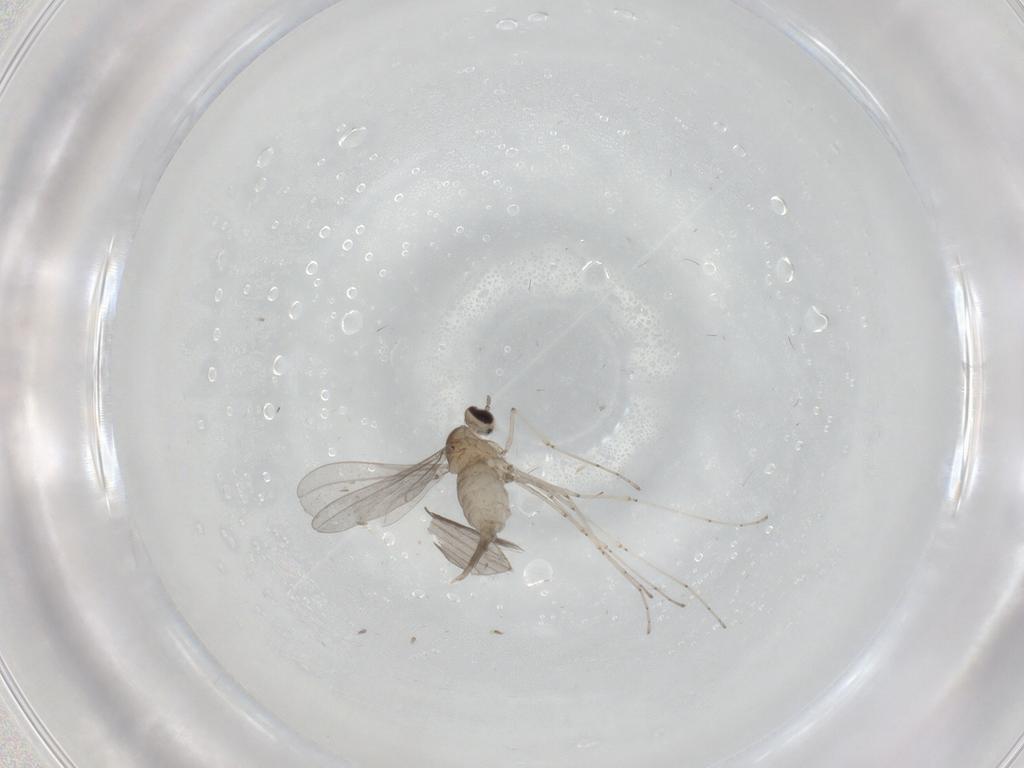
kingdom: Animalia
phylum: Arthropoda
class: Insecta
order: Diptera
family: Cecidomyiidae
